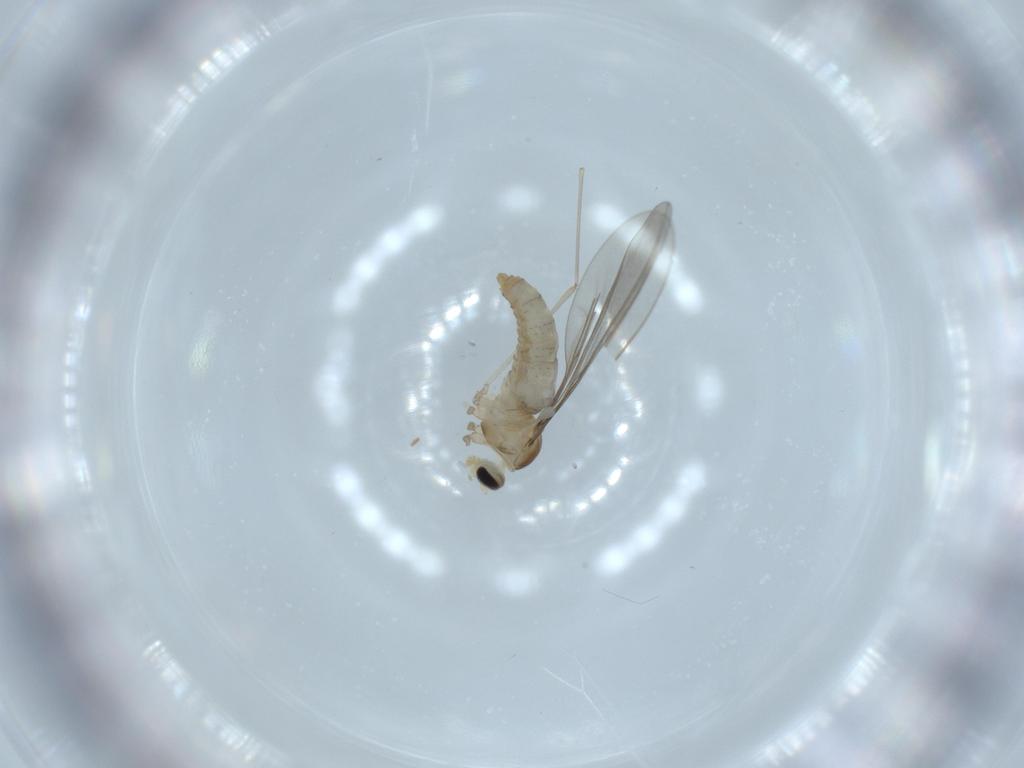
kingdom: Animalia
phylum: Arthropoda
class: Insecta
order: Diptera
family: Cecidomyiidae
